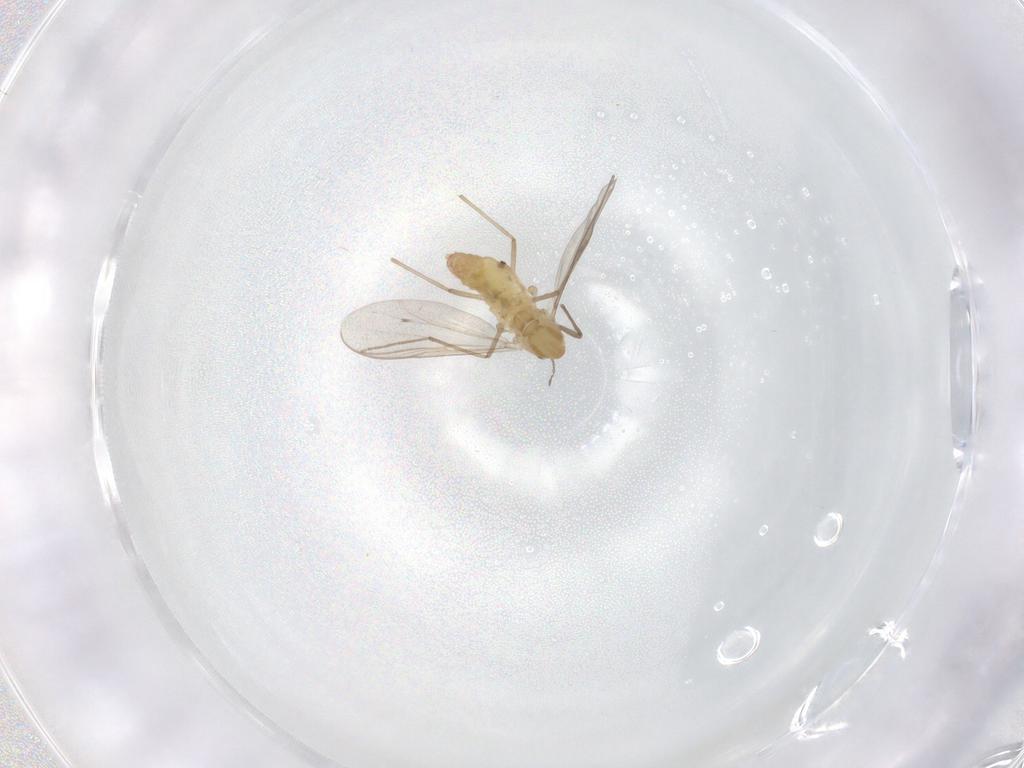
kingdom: Animalia
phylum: Arthropoda
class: Insecta
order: Diptera
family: Chironomidae
